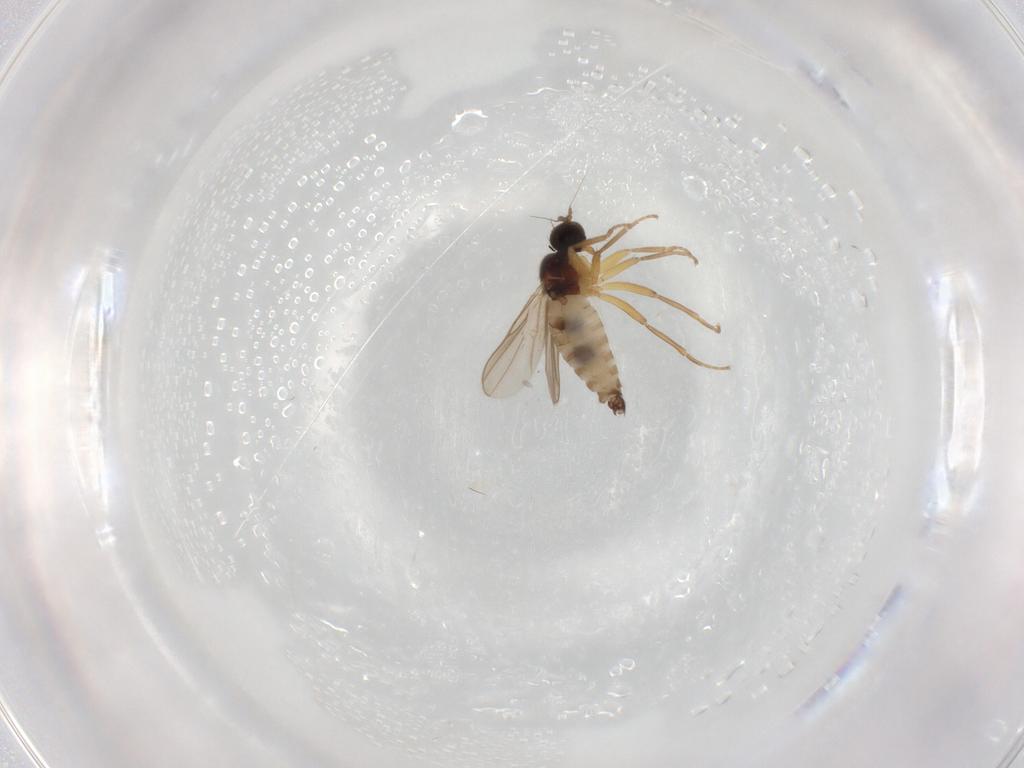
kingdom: Animalia
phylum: Arthropoda
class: Insecta
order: Diptera
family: Hybotidae
